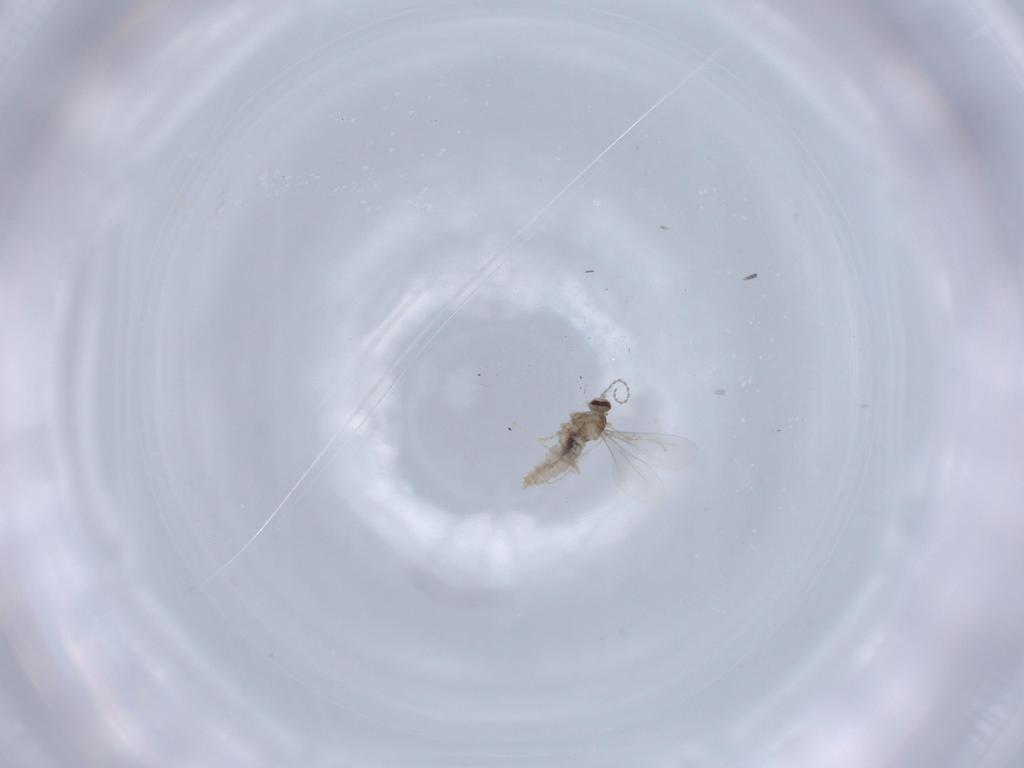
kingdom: Animalia
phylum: Arthropoda
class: Insecta
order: Diptera
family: Cecidomyiidae
